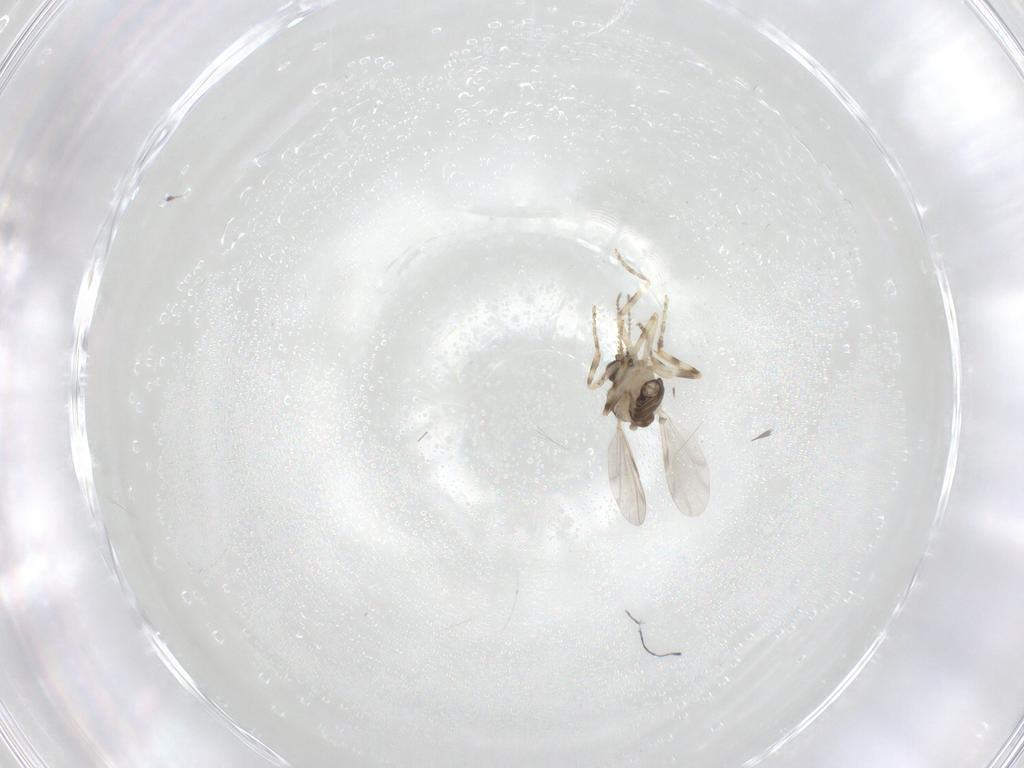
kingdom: Animalia
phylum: Arthropoda
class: Insecta
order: Diptera
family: Ceratopogonidae
